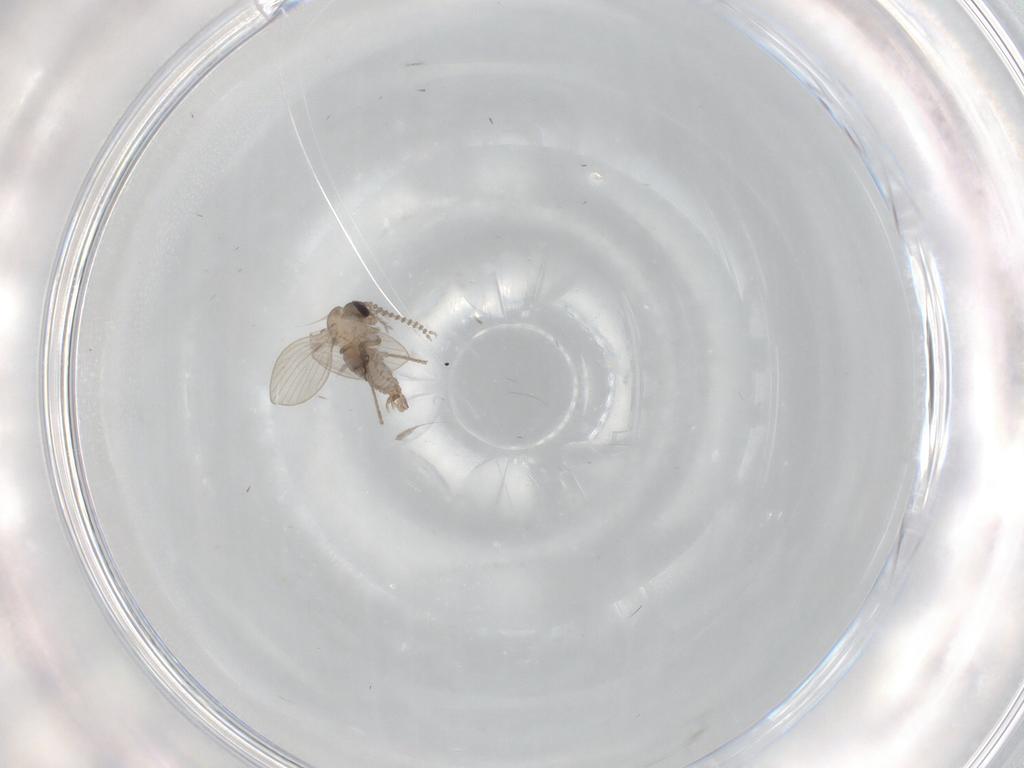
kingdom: Animalia
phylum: Arthropoda
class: Insecta
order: Diptera
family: Psychodidae
